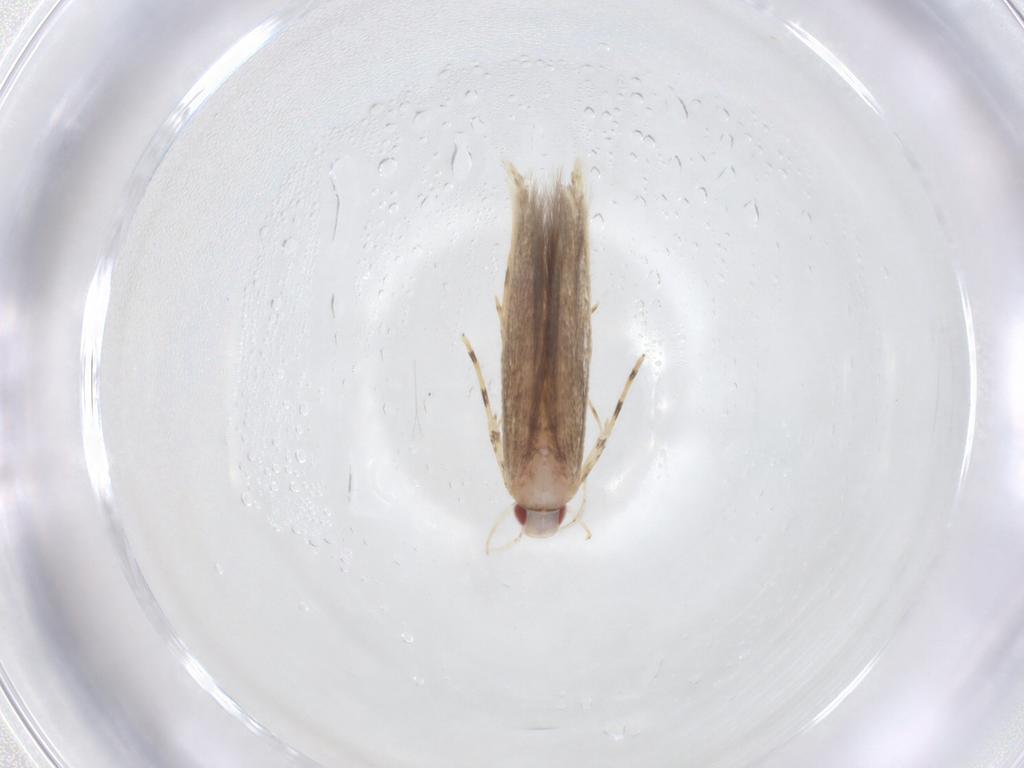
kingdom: Animalia
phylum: Arthropoda
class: Insecta
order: Lepidoptera
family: Cosmopterigidae
